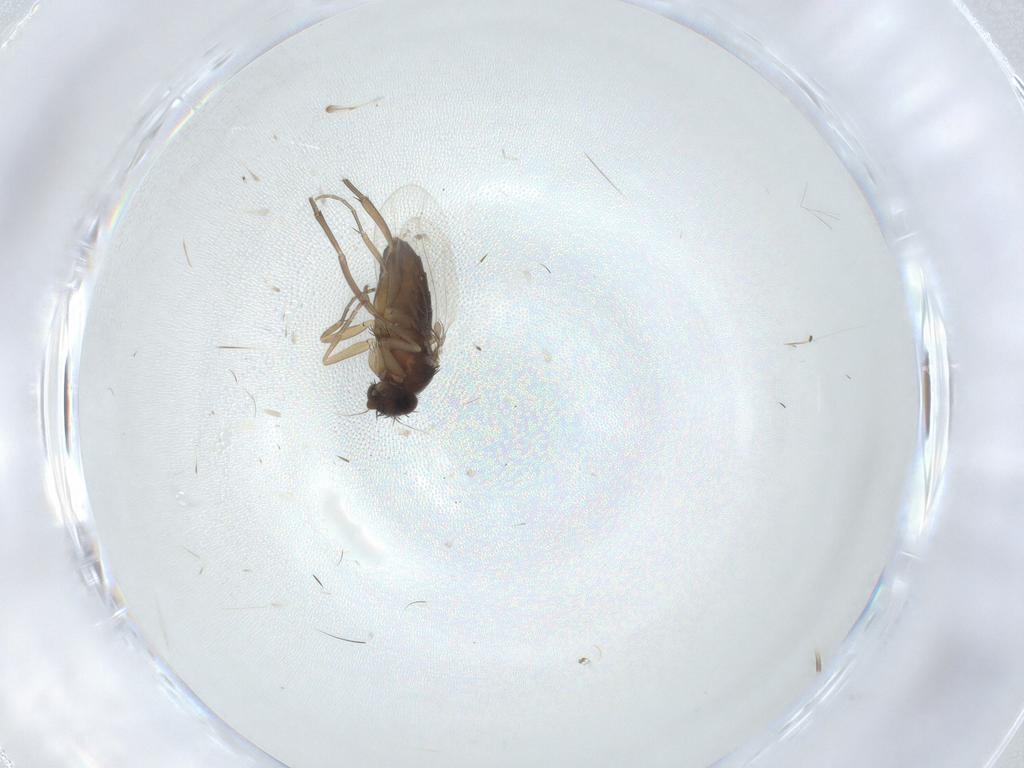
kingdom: Animalia
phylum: Arthropoda
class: Insecta
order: Diptera
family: Phoridae
